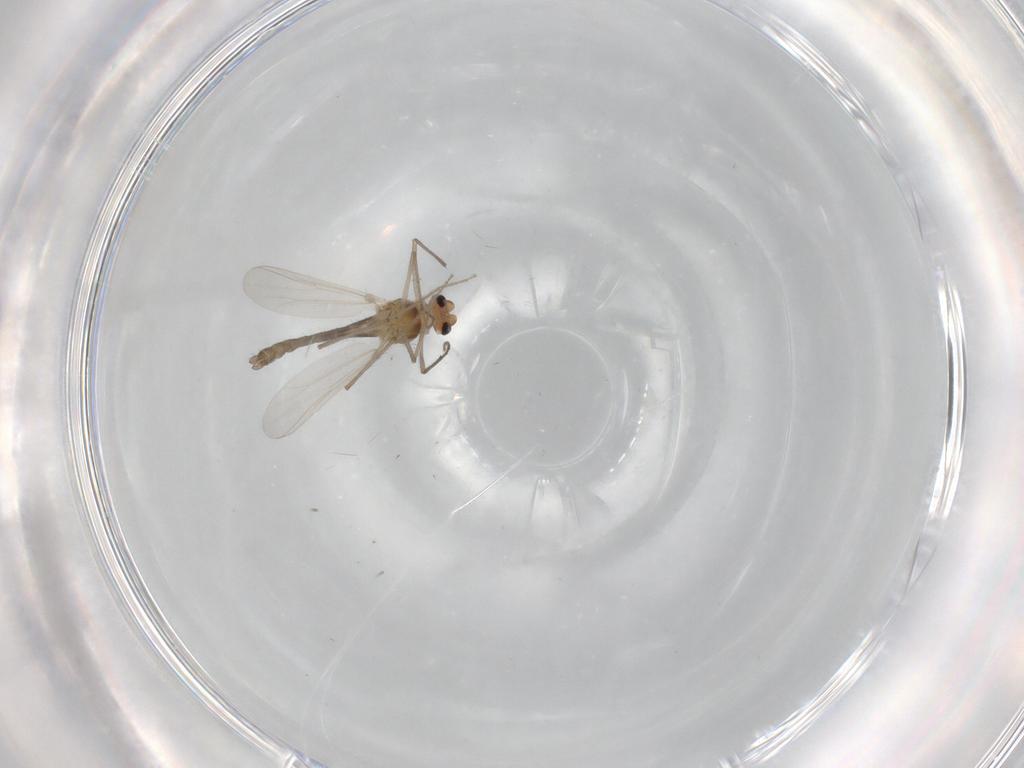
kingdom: Animalia
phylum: Arthropoda
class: Insecta
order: Diptera
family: Chironomidae
